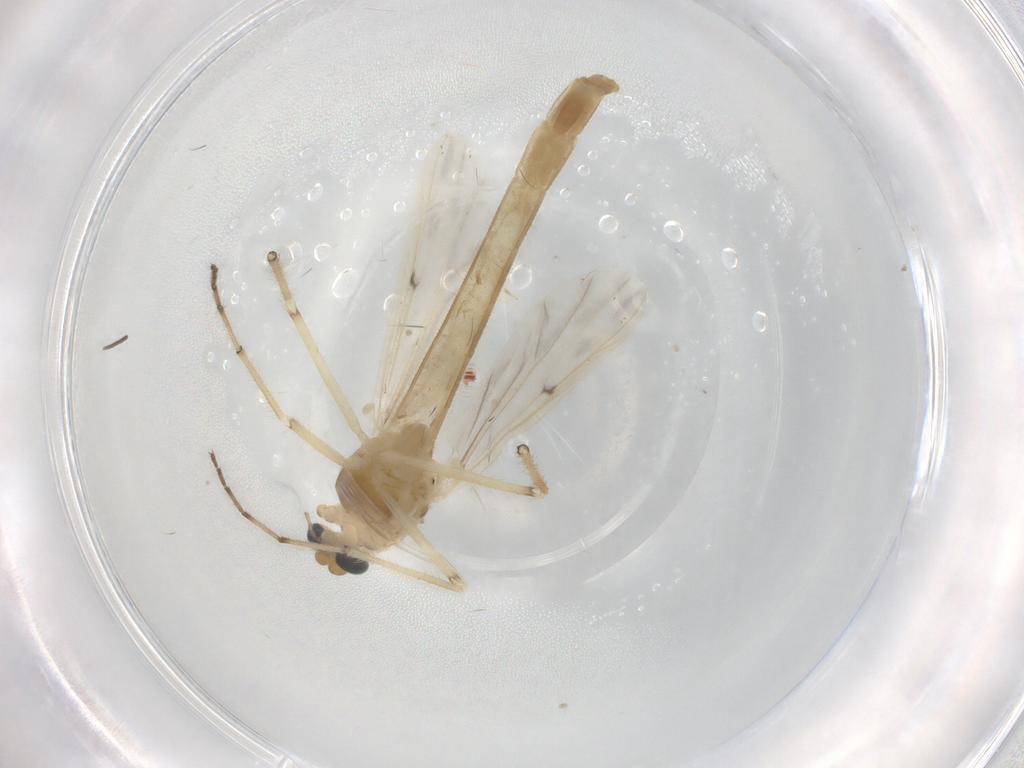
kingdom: Animalia
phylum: Arthropoda
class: Insecta
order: Diptera
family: Chironomidae
